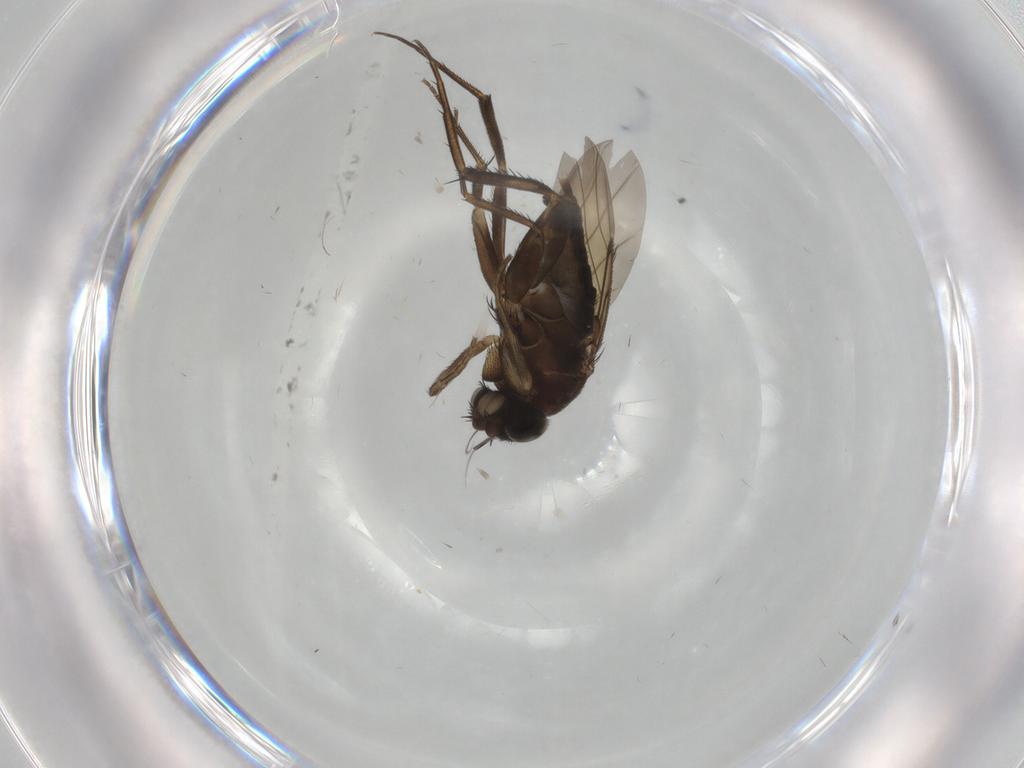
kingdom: Animalia
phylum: Arthropoda
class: Insecta
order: Diptera
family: Phoridae
